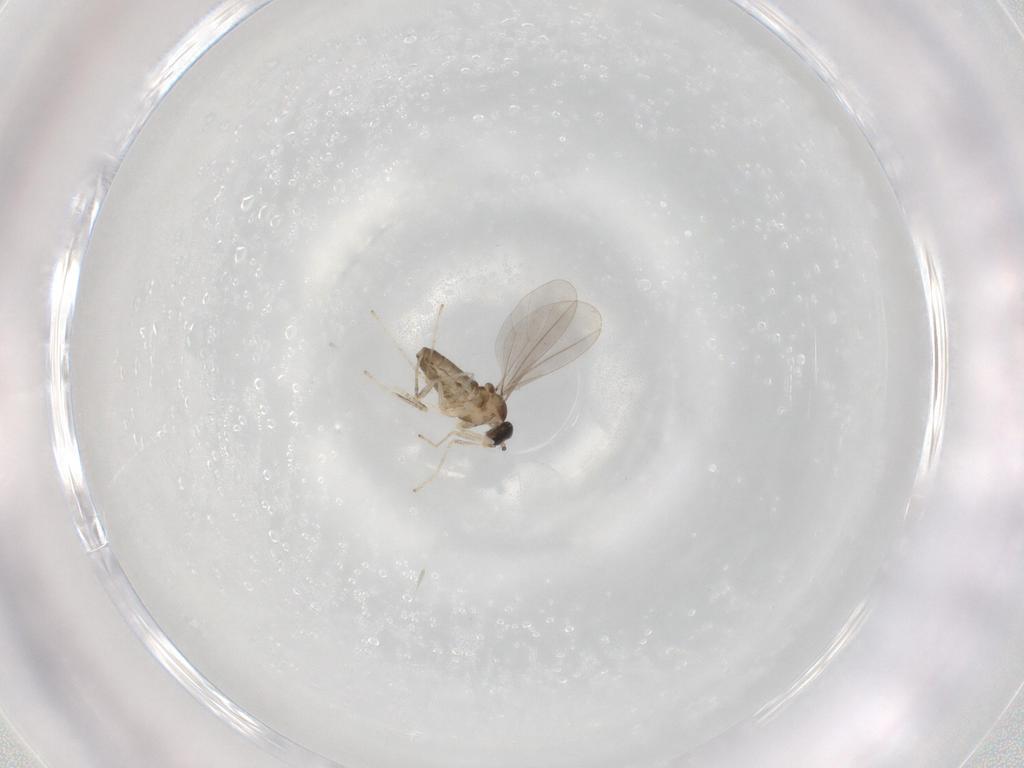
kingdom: Animalia
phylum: Arthropoda
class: Insecta
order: Diptera
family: Cecidomyiidae
